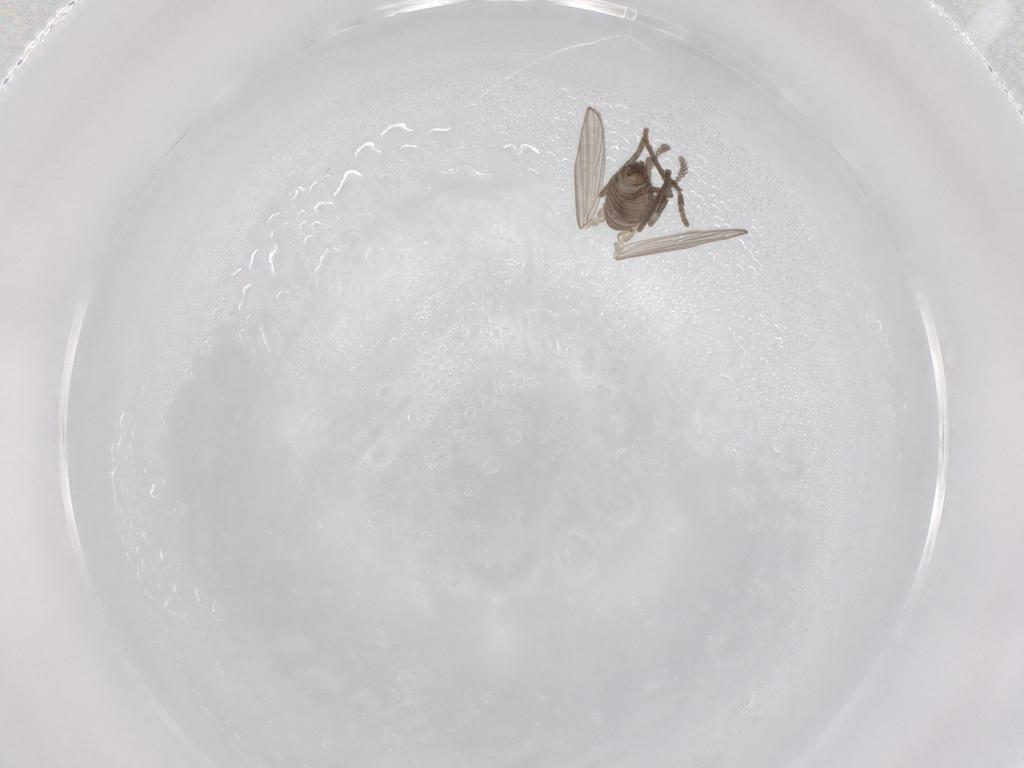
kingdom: Animalia
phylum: Arthropoda
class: Insecta
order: Diptera
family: Psychodidae
